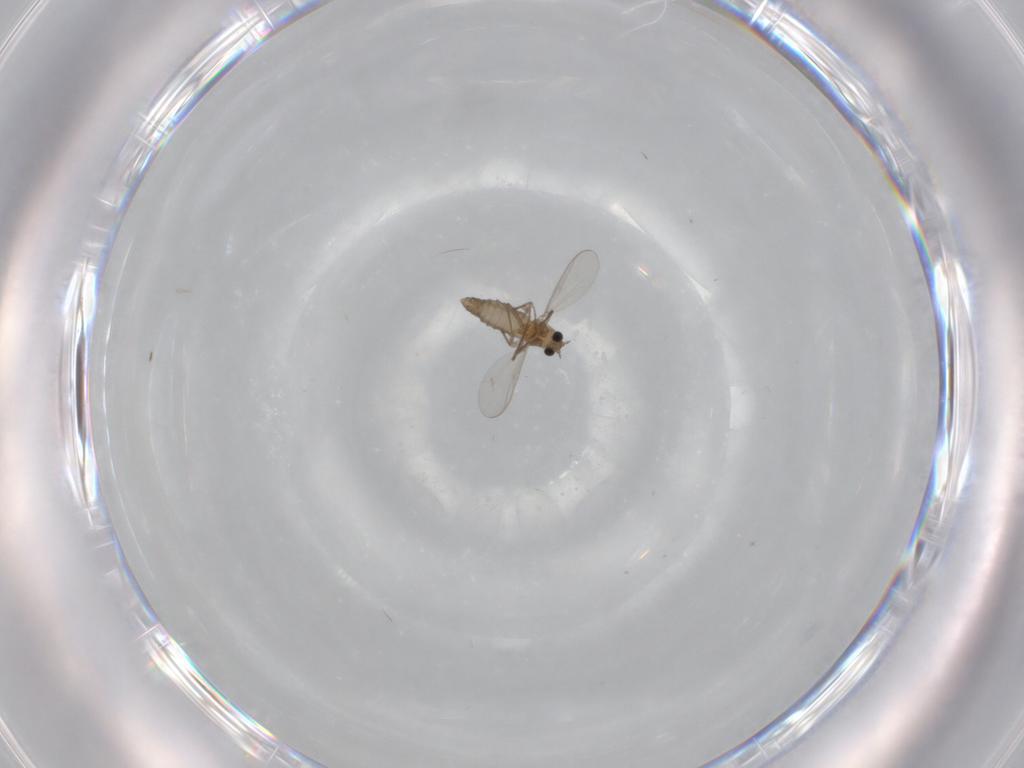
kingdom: Animalia
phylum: Arthropoda
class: Insecta
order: Diptera
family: Chironomidae
